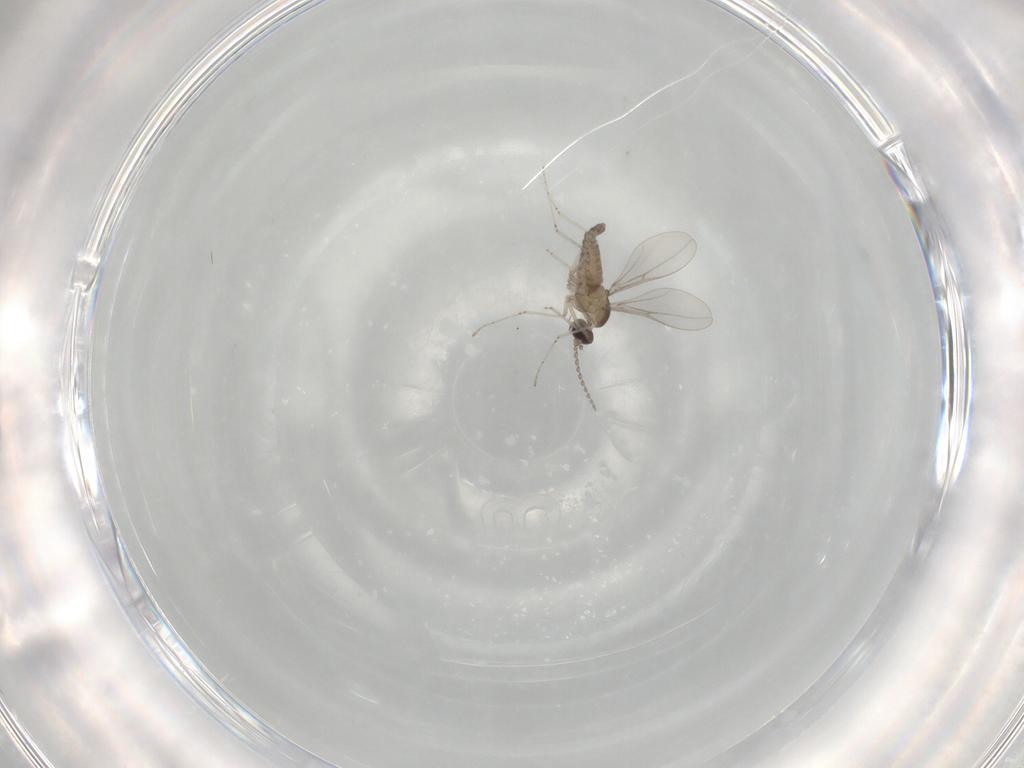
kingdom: Animalia
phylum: Arthropoda
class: Insecta
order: Diptera
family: Cecidomyiidae
